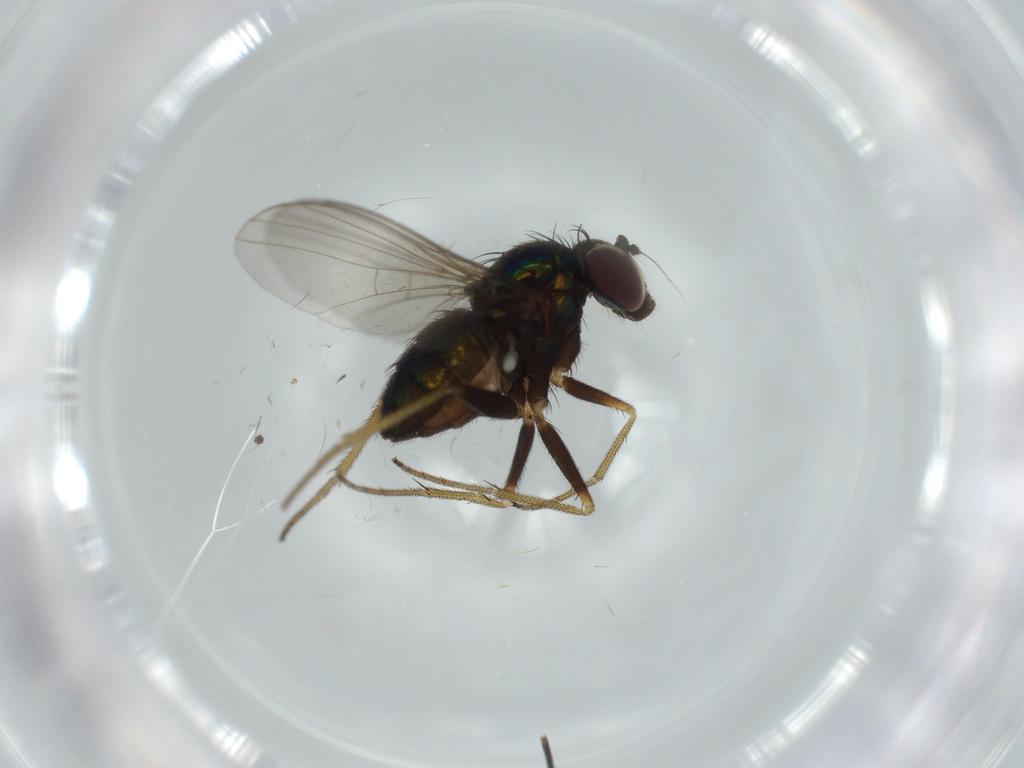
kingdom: Animalia
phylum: Arthropoda
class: Insecta
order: Diptera
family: Dolichopodidae
